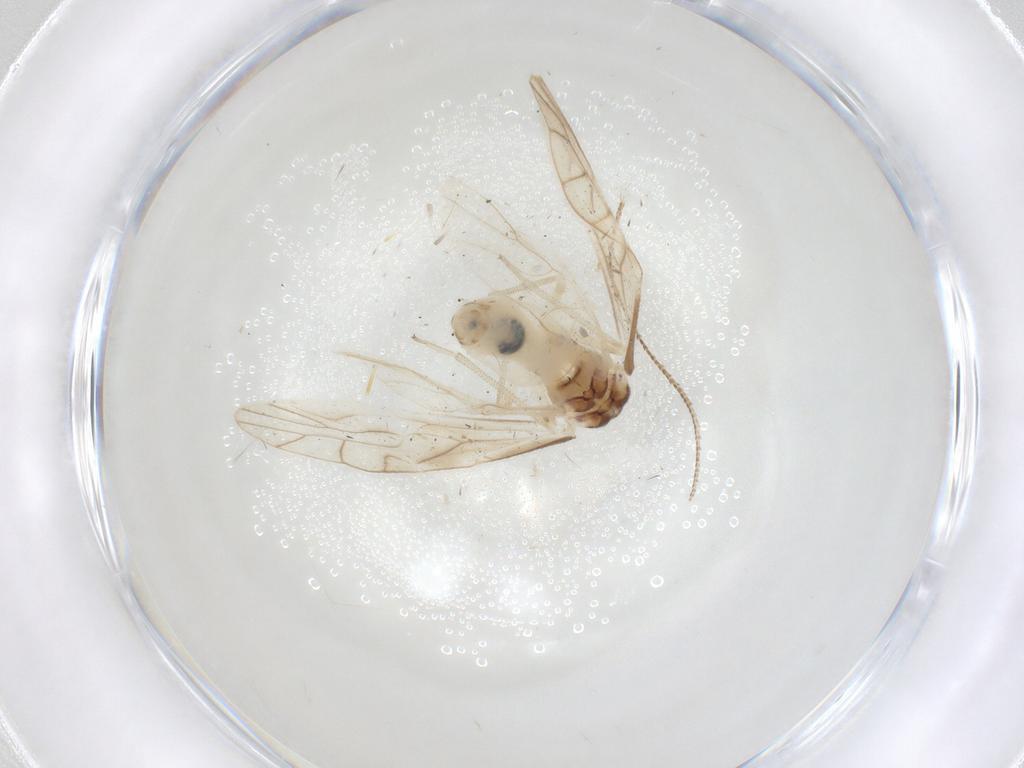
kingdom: Animalia
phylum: Arthropoda
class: Insecta
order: Psocodea
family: Caeciliusidae
